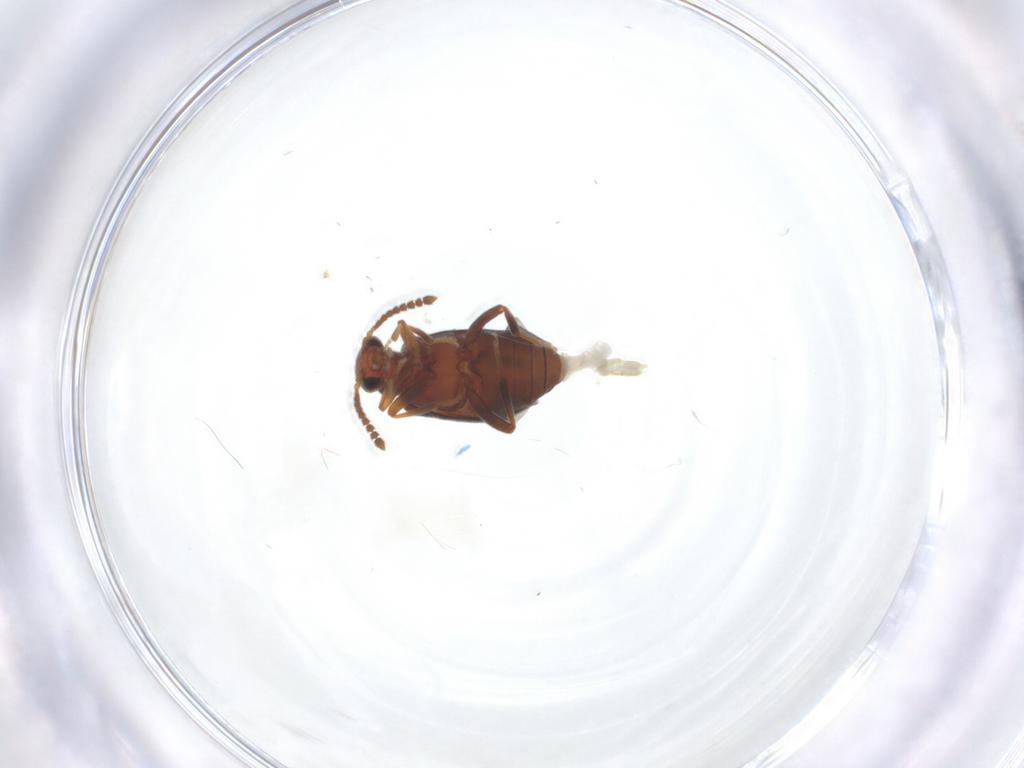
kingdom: Animalia
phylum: Arthropoda
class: Insecta
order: Coleoptera
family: Aderidae
